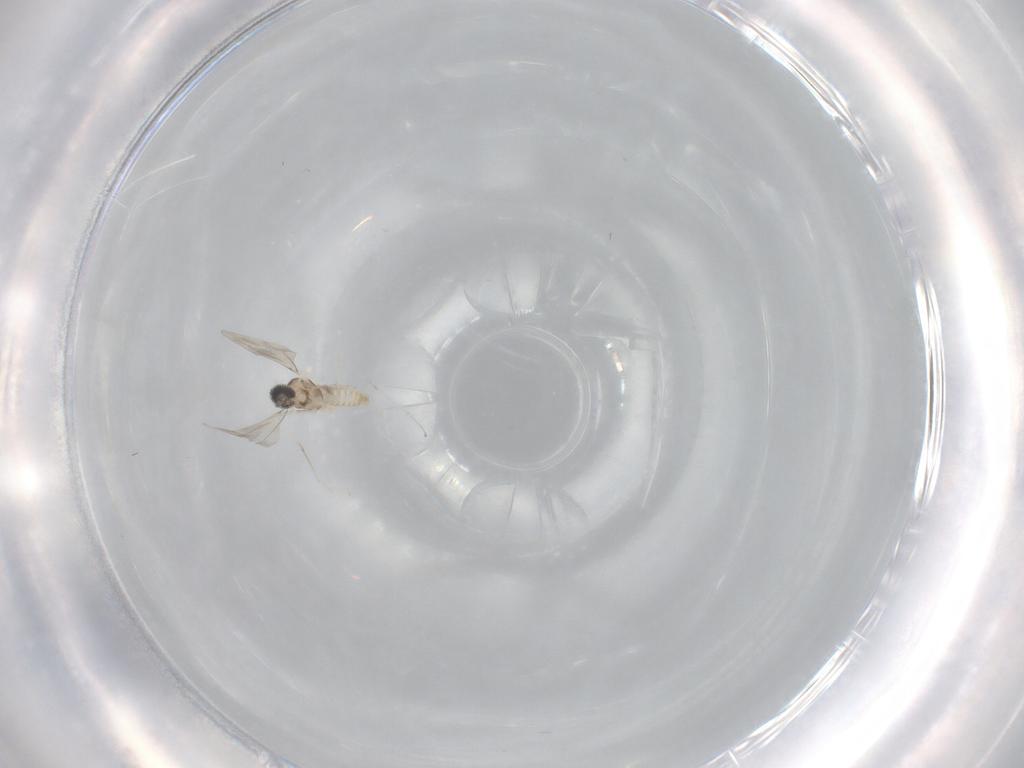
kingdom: Animalia
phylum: Arthropoda
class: Insecta
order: Diptera
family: Cecidomyiidae
